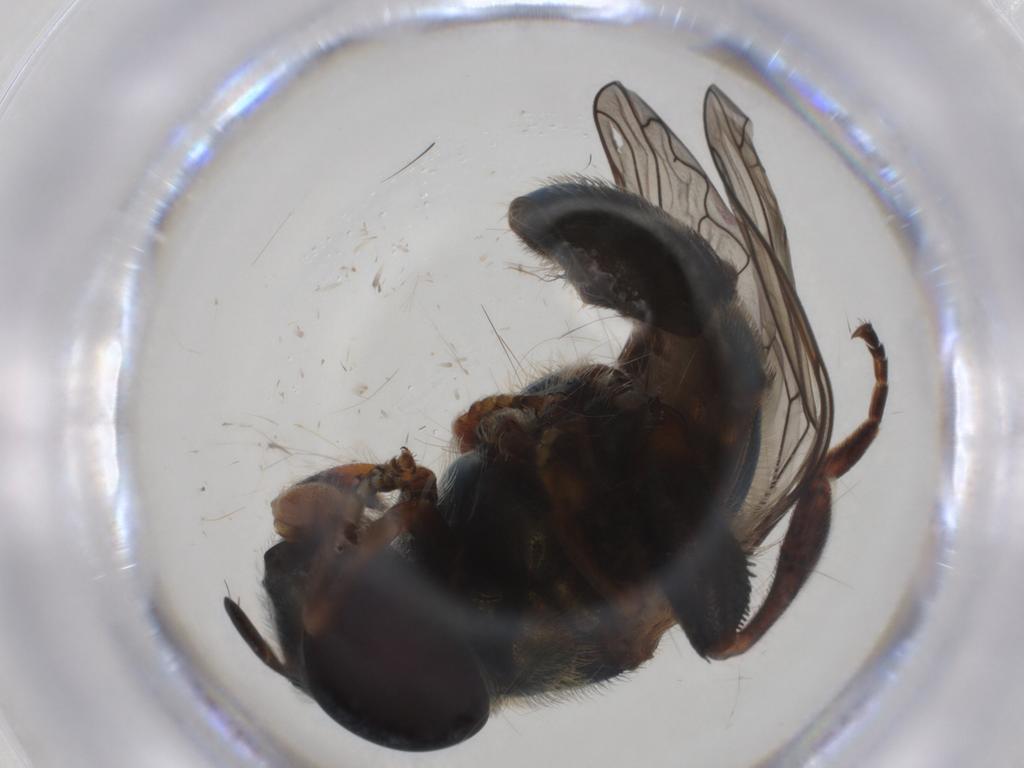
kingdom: Animalia
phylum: Arthropoda
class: Insecta
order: Diptera
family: Syrphidae
